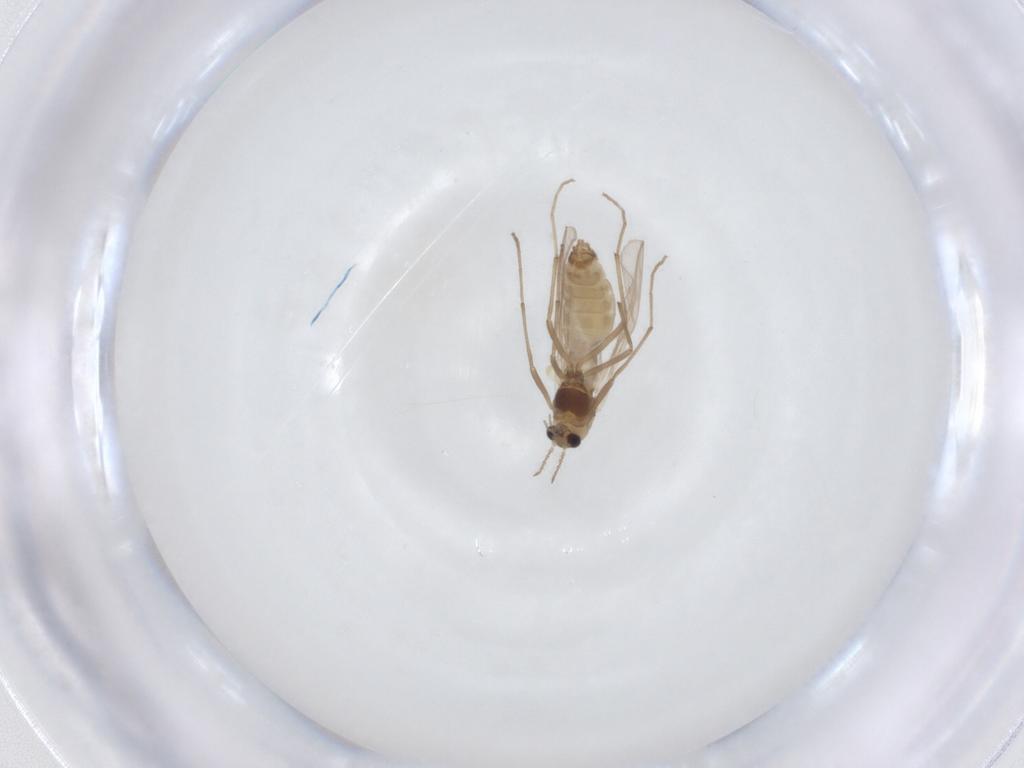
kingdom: Animalia
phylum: Arthropoda
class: Insecta
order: Diptera
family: Chironomidae
